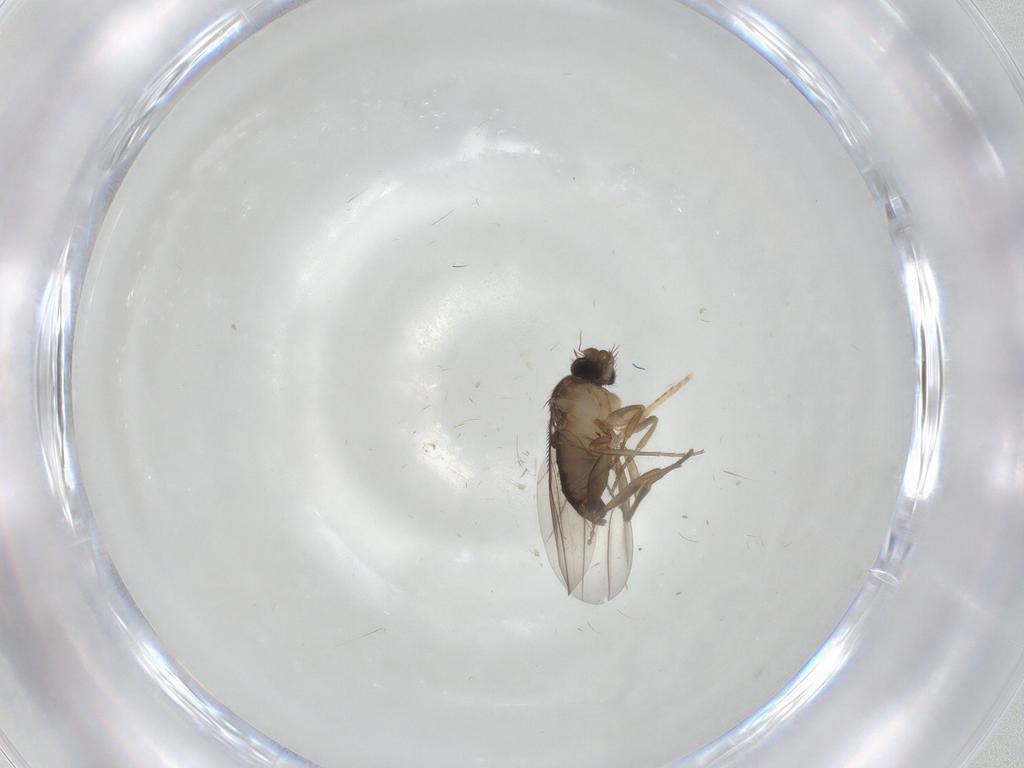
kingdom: Animalia
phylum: Arthropoda
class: Insecta
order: Diptera
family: Phoridae
